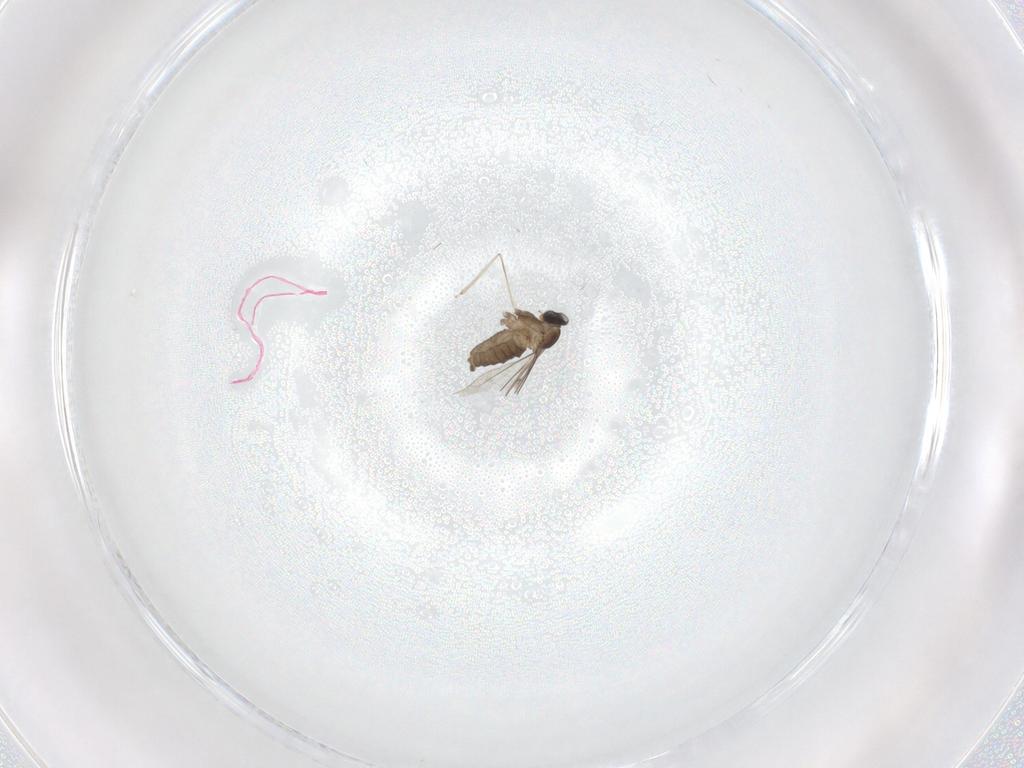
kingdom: Animalia
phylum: Arthropoda
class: Insecta
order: Diptera
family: Cecidomyiidae
